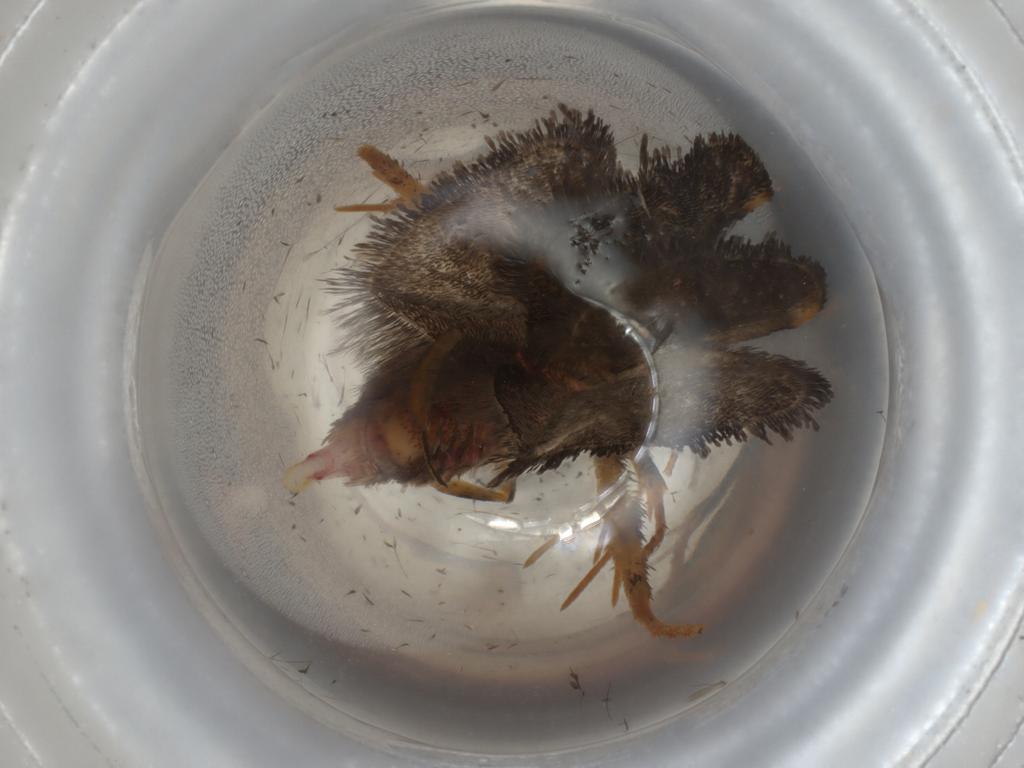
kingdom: Animalia
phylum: Arthropoda
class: Insecta
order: Lepidoptera
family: Lecithoceridae
